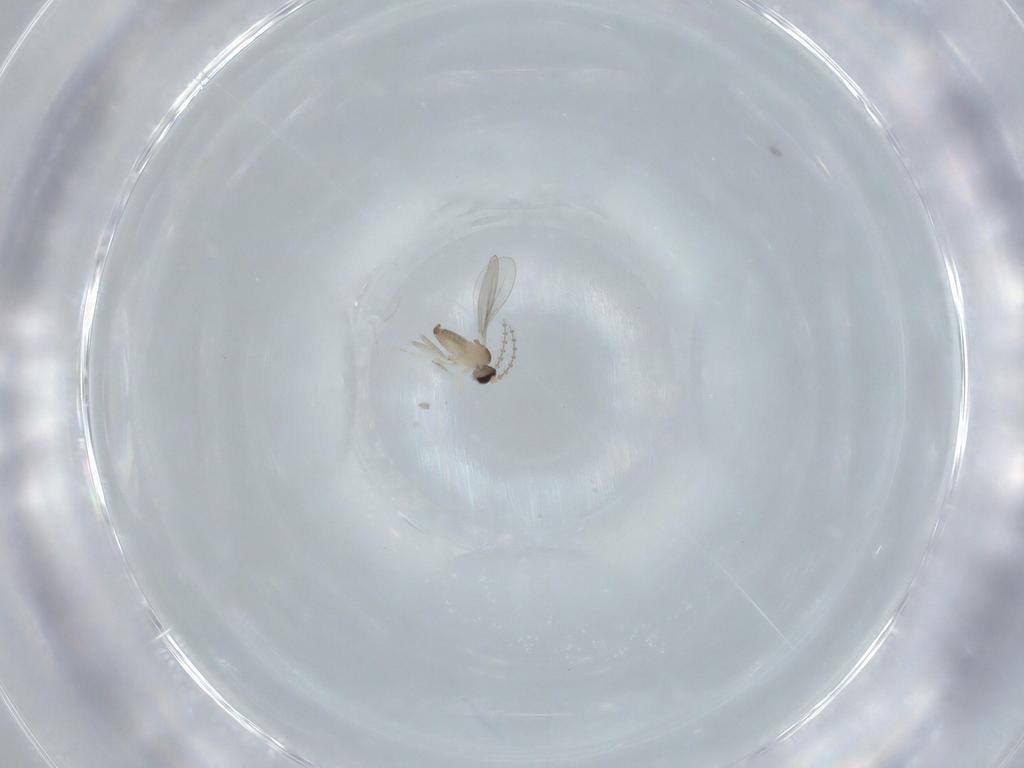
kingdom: Animalia
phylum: Arthropoda
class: Insecta
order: Diptera
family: Cecidomyiidae
